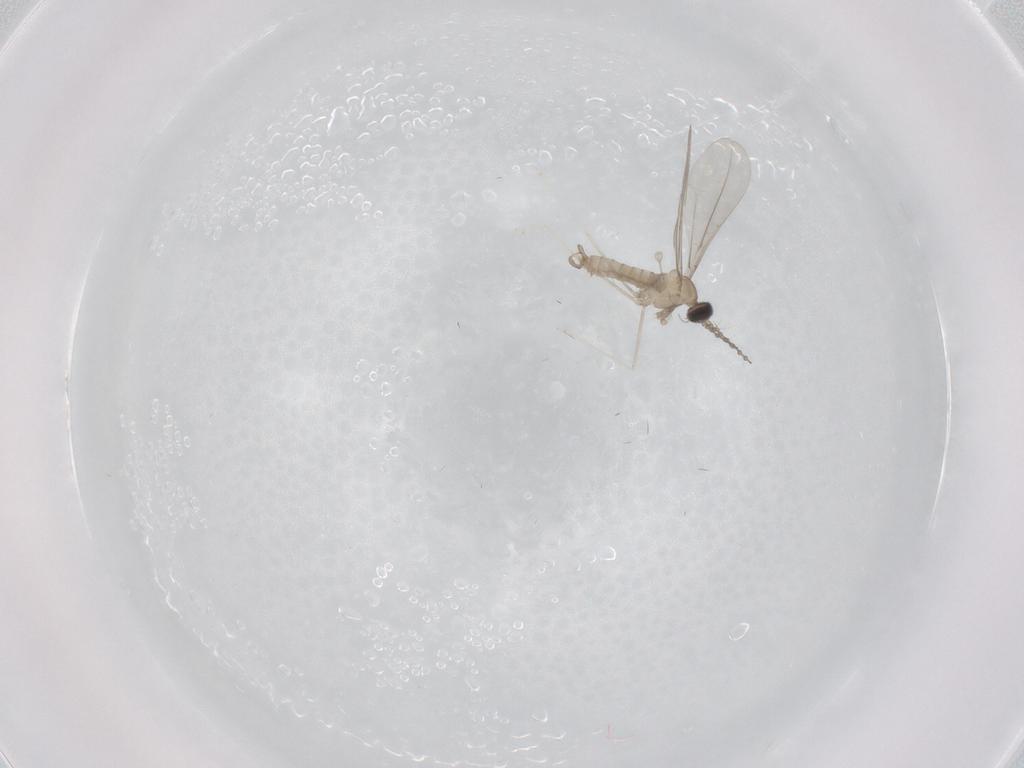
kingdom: Animalia
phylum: Arthropoda
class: Insecta
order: Diptera
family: Cecidomyiidae
